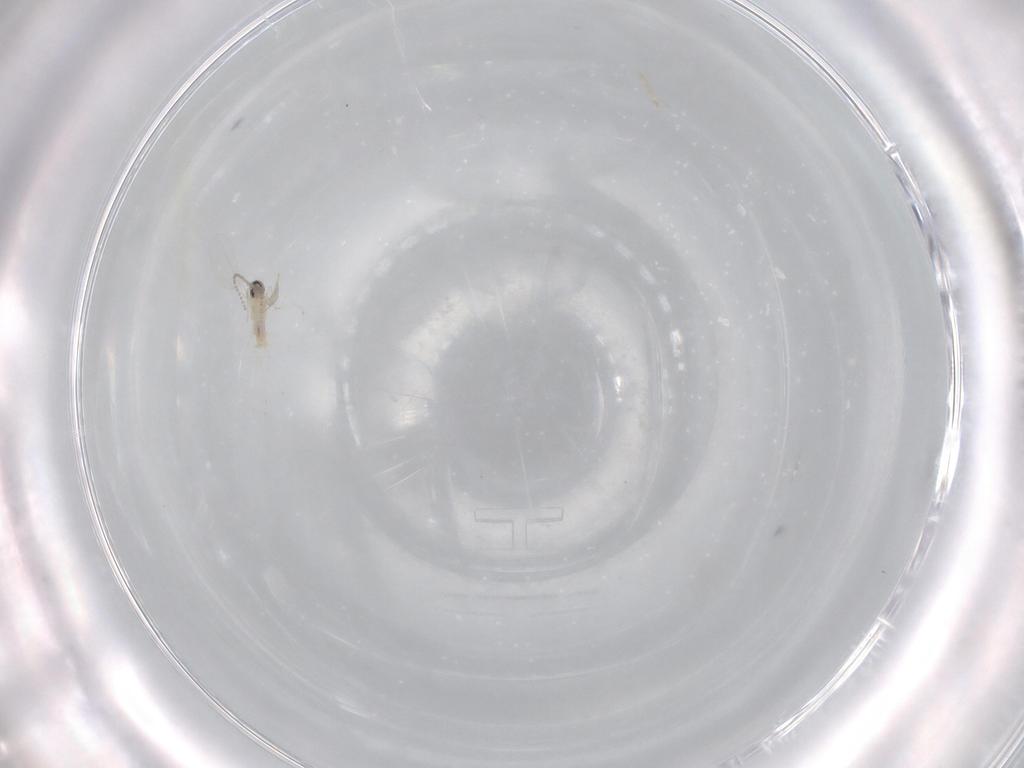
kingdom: Animalia
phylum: Arthropoda
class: Insecta
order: Diptera
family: Cecidomyiidae
